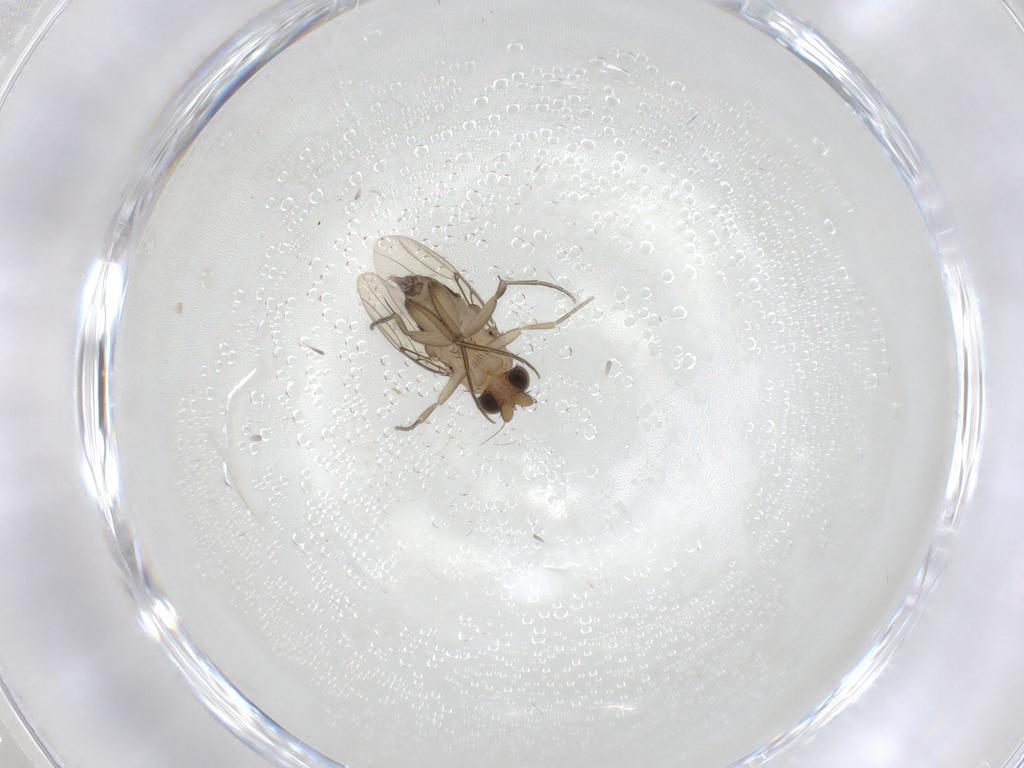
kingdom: Animalia
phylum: Arthropoda
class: Insecta
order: Diptera
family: Phoridae
